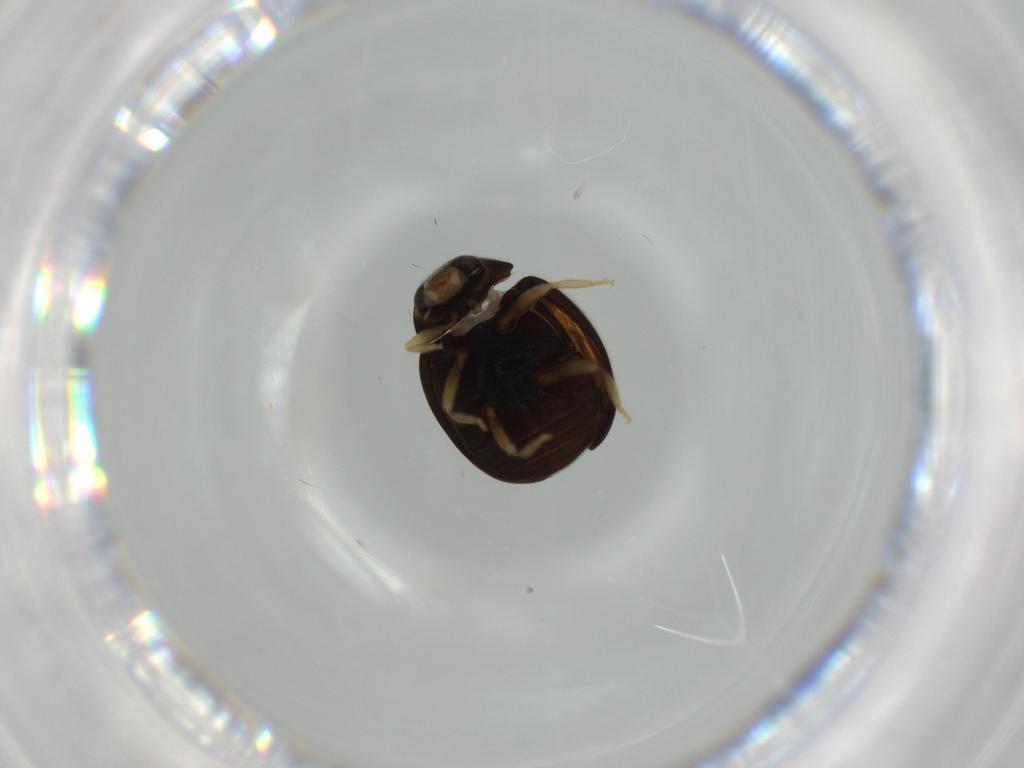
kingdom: Animalia
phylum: Arthropoda
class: Insecta
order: Coleoptera
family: Coccinellidae
